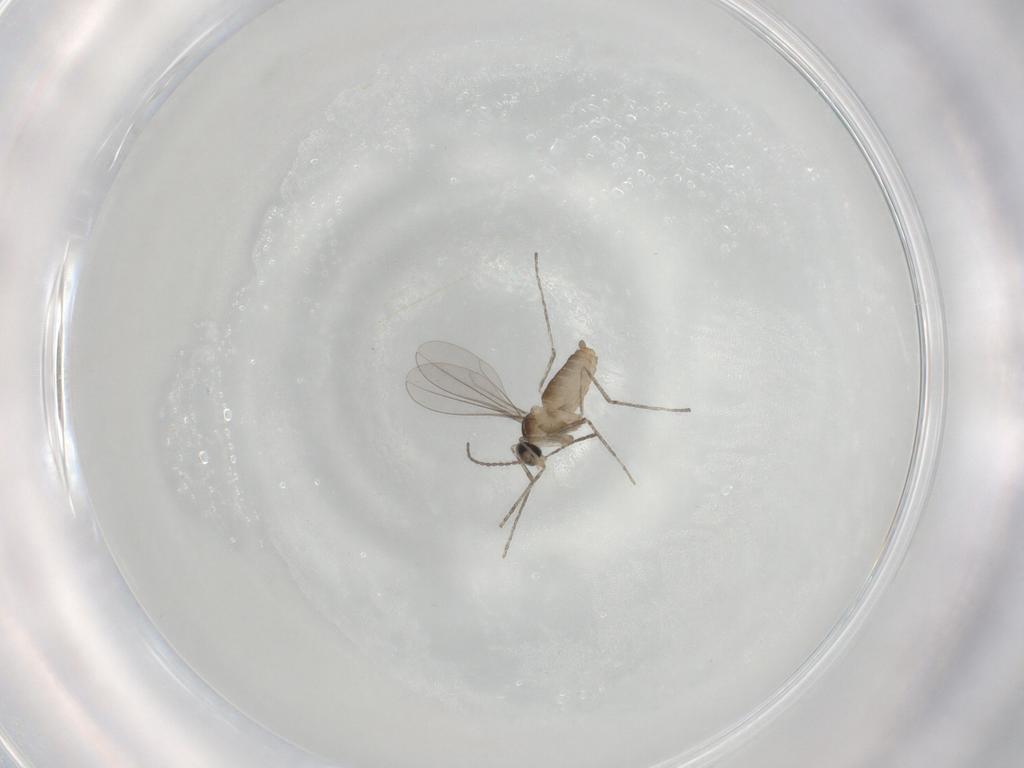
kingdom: Animalia
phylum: Arthropoda
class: Insecta
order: Diptera
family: Cecidomyiidae
